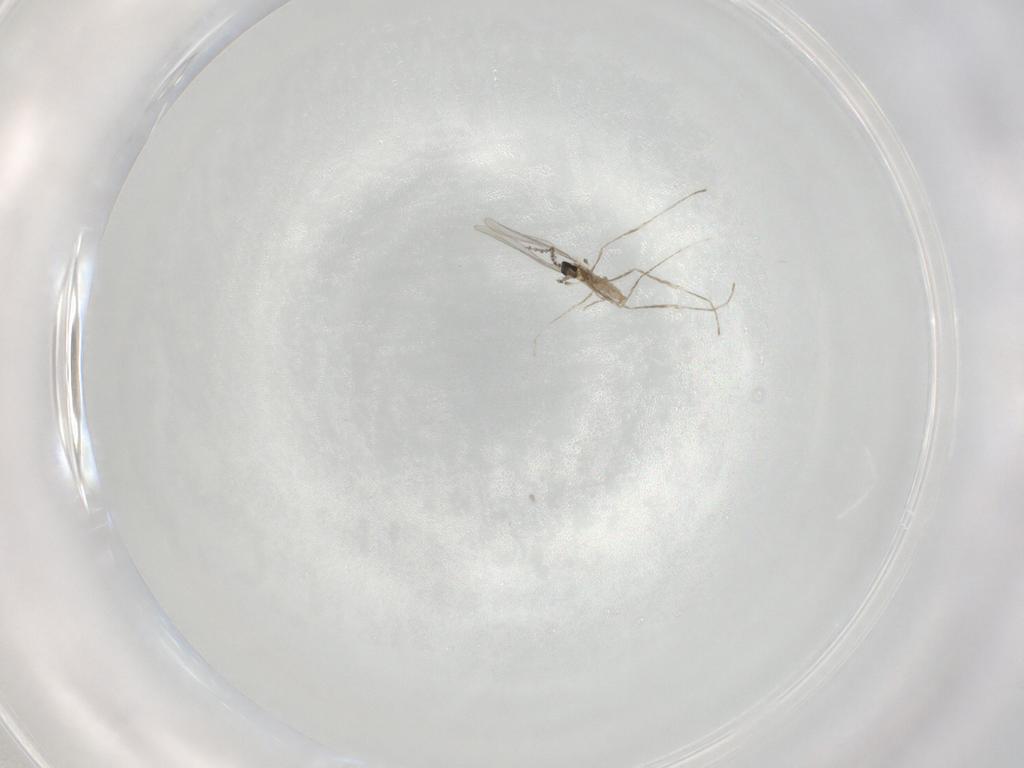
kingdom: Animalia
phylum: Arthropoda
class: Insecta
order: Diptera
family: Cecidomyiidae
